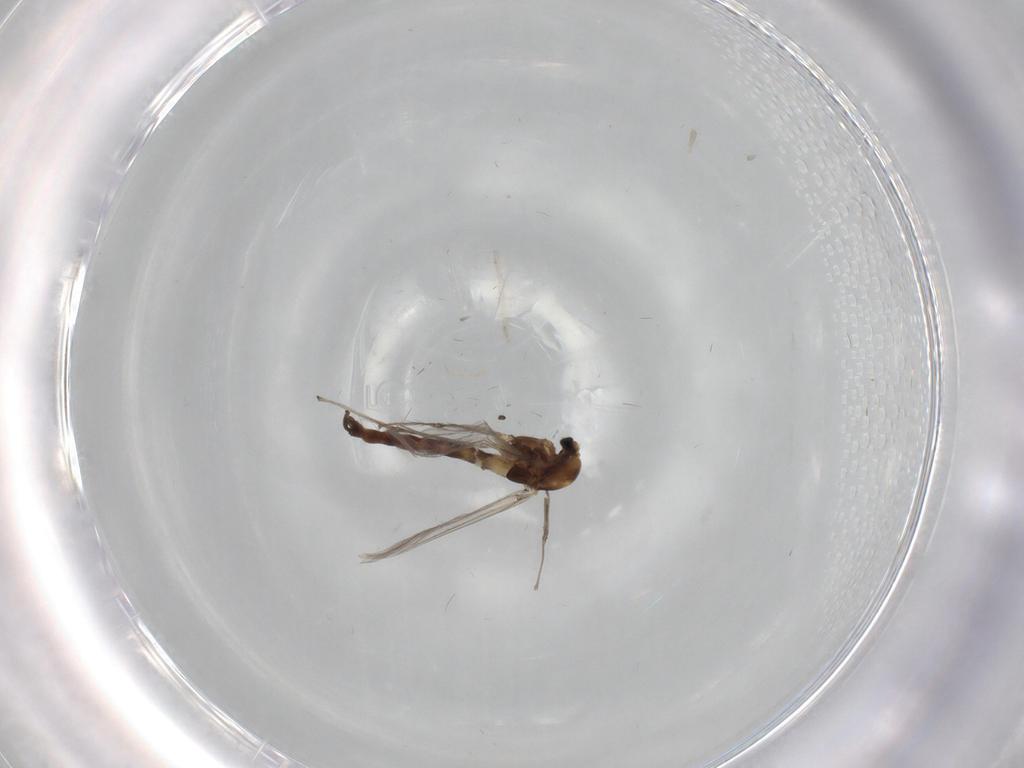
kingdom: Animalia
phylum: Arthropoda
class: Insecta
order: Diptera
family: Chironomidae
